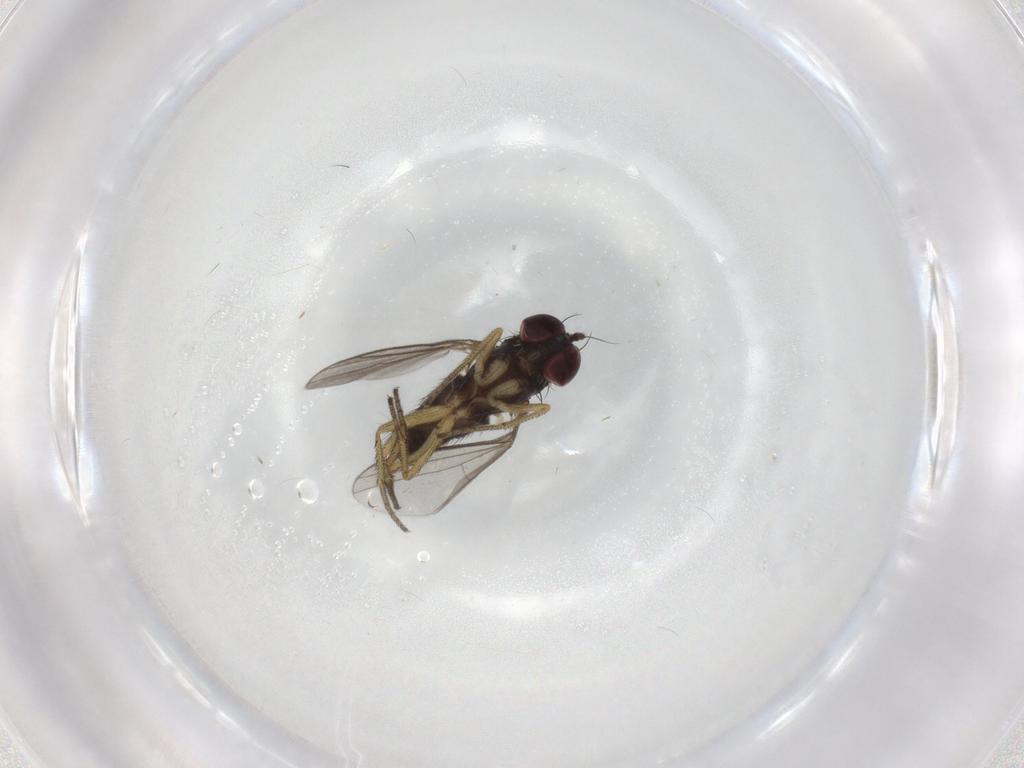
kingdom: Animalia
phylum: Arthropoda
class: Insecta
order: Diptera
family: Dolichopodidae
